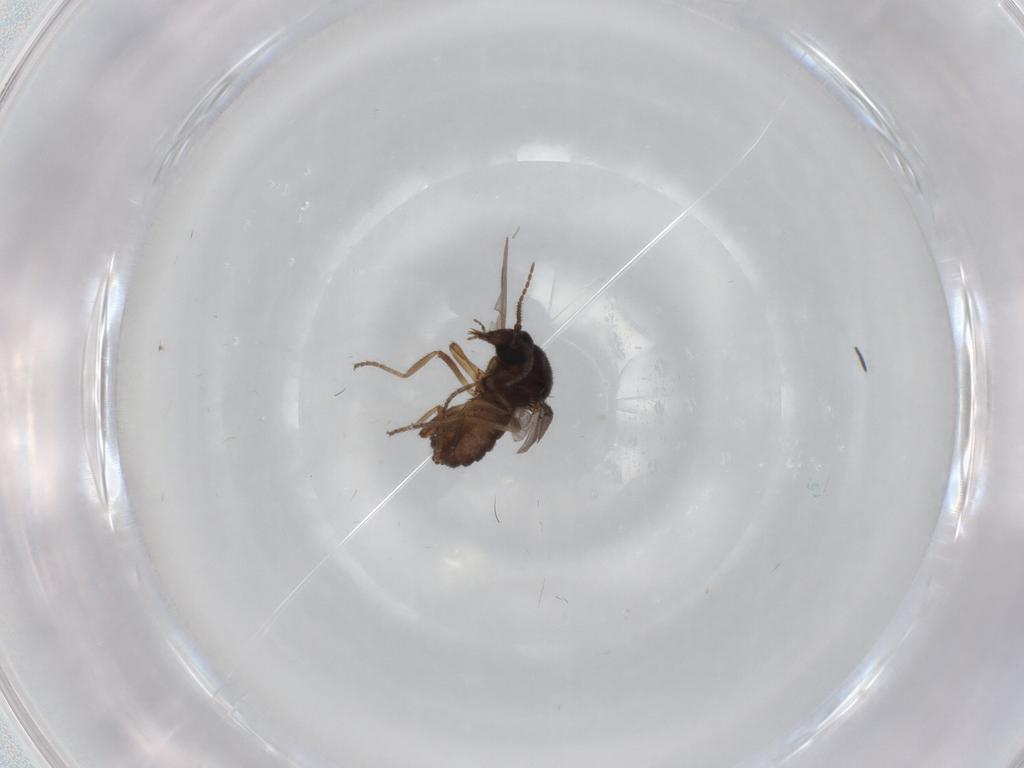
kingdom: Animalia
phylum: Arthropoda
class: Insecta
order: Diptera
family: Ceratopogonidae
